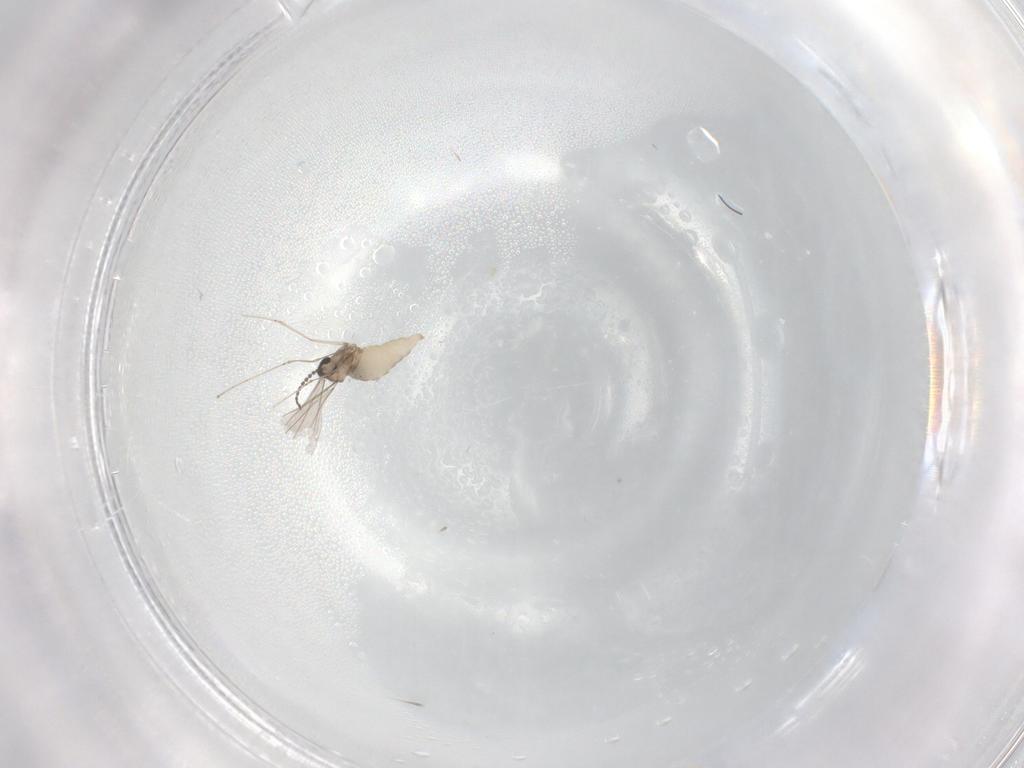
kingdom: Animalia
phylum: Arthropoda
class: Insecta
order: Diptera
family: Cecidomyiidae
